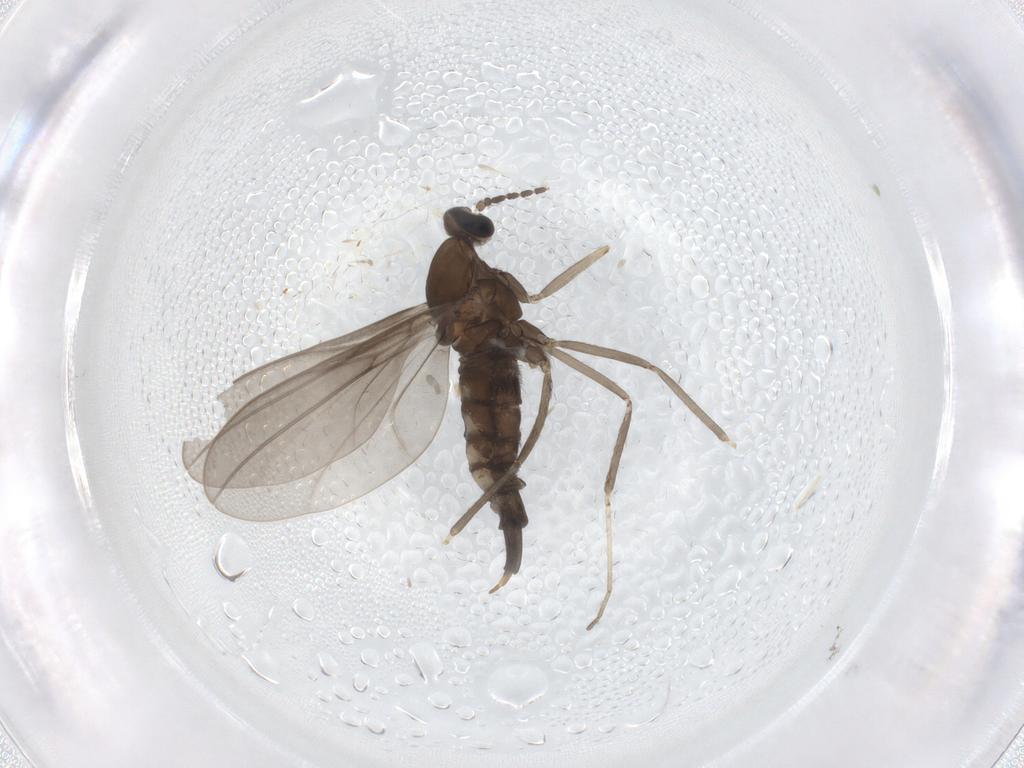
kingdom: Animalia
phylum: Arthropoda
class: Insecta
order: Diptera
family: Cecidomyiidae
